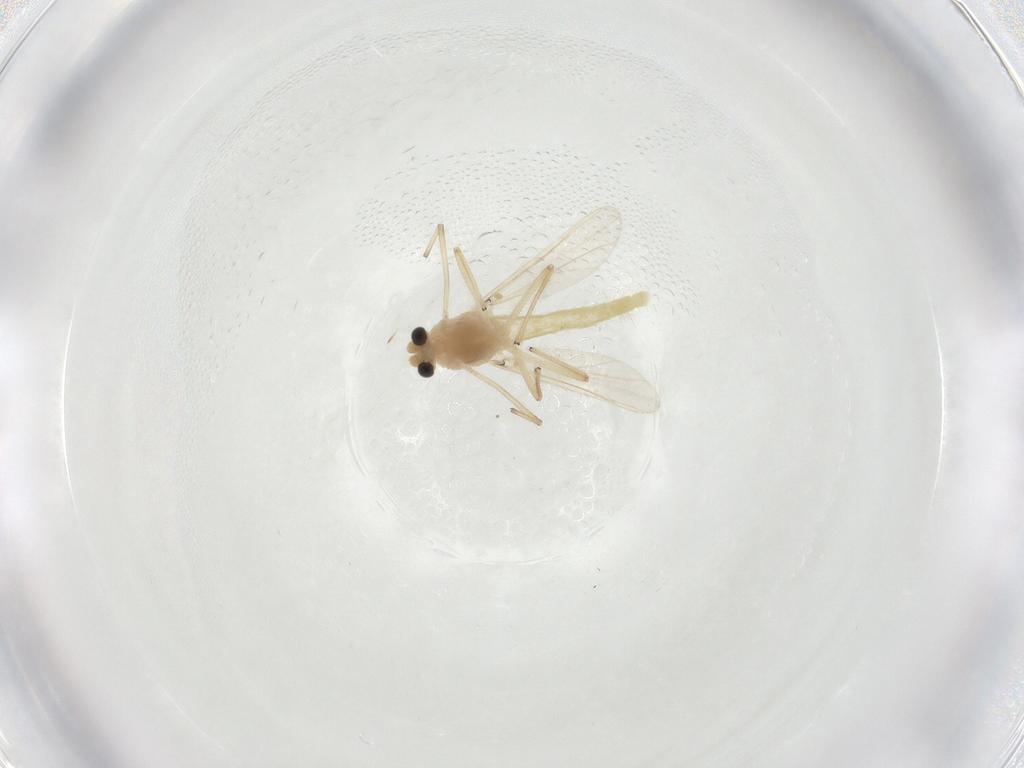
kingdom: Animalia
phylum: Arthropoda
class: Insecta
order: Diptera
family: Chironomidae
